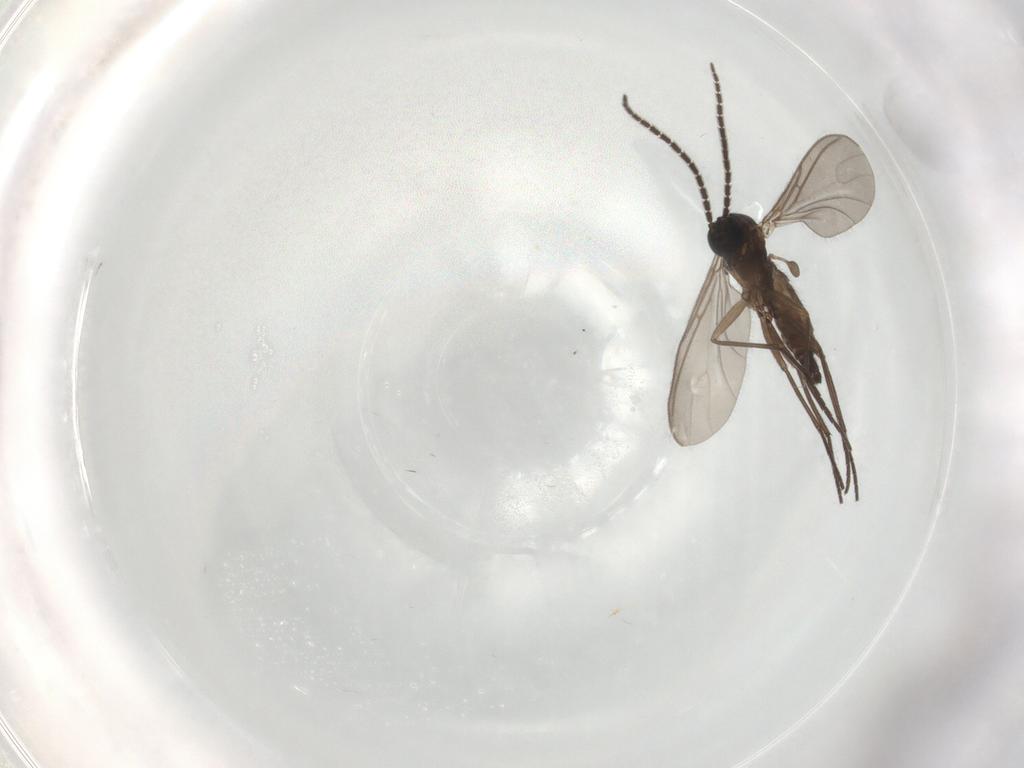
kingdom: Animalia
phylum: Arthropoda
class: Insecta
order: Diptera
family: Sciaridae
